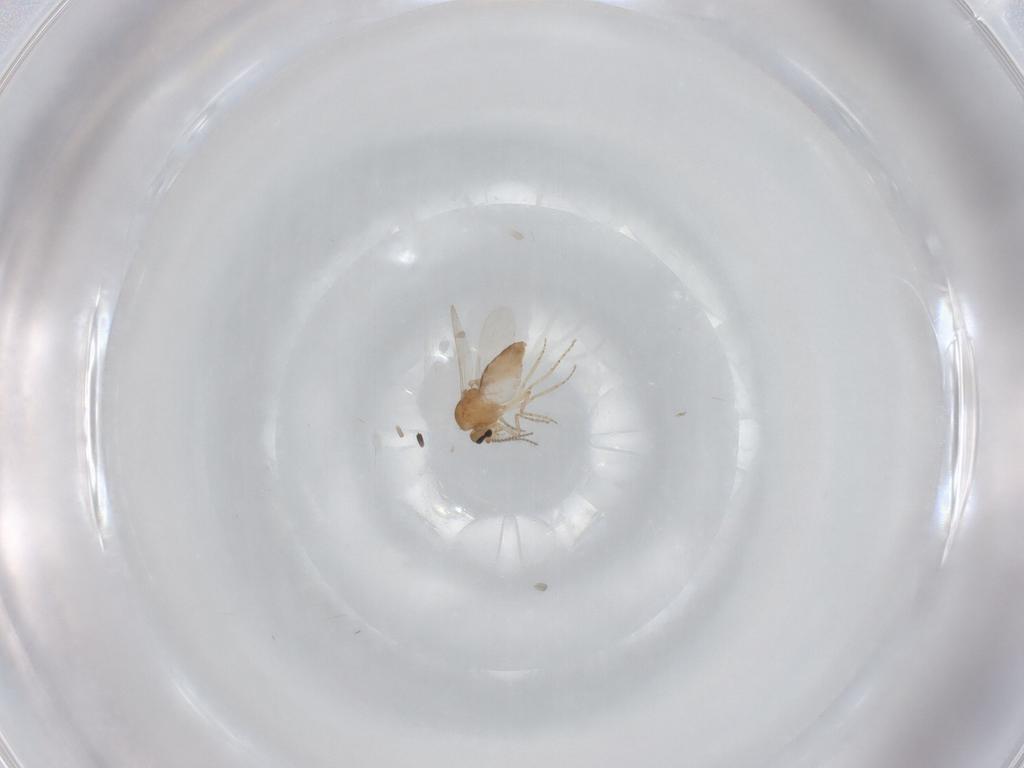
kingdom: Animalia
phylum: Arthropoda
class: Insecta
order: Diptera
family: Ceratopogonidae
